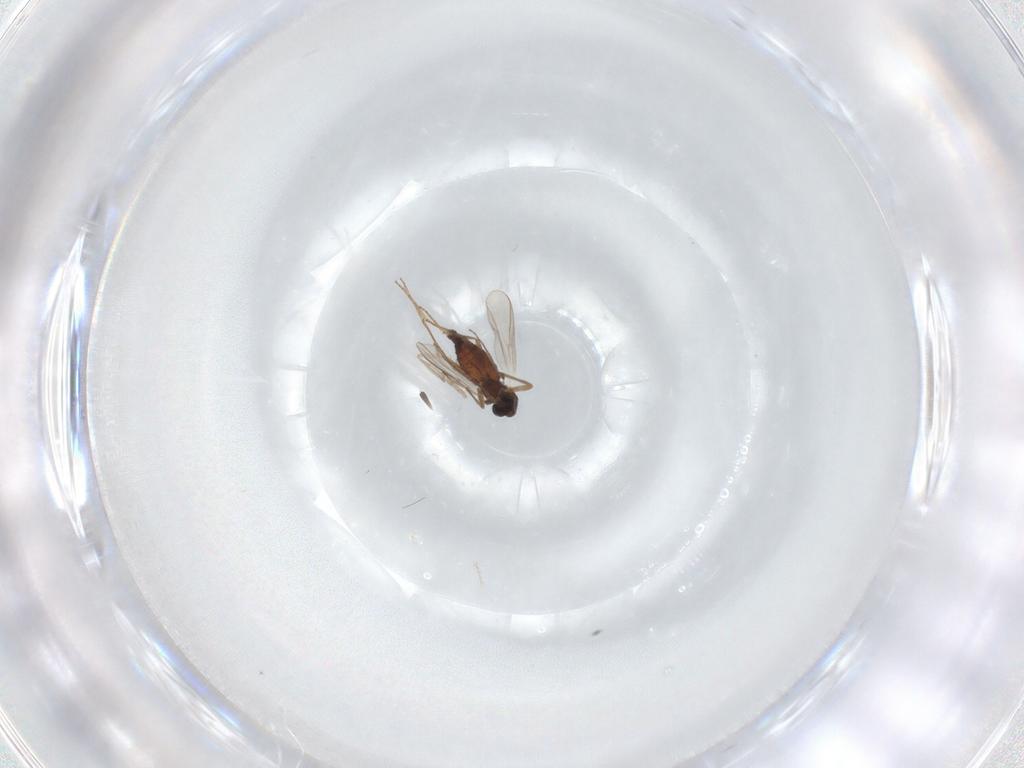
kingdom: Animalia
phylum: Arthropoda
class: Insecta
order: Diptera
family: Chironomidae
